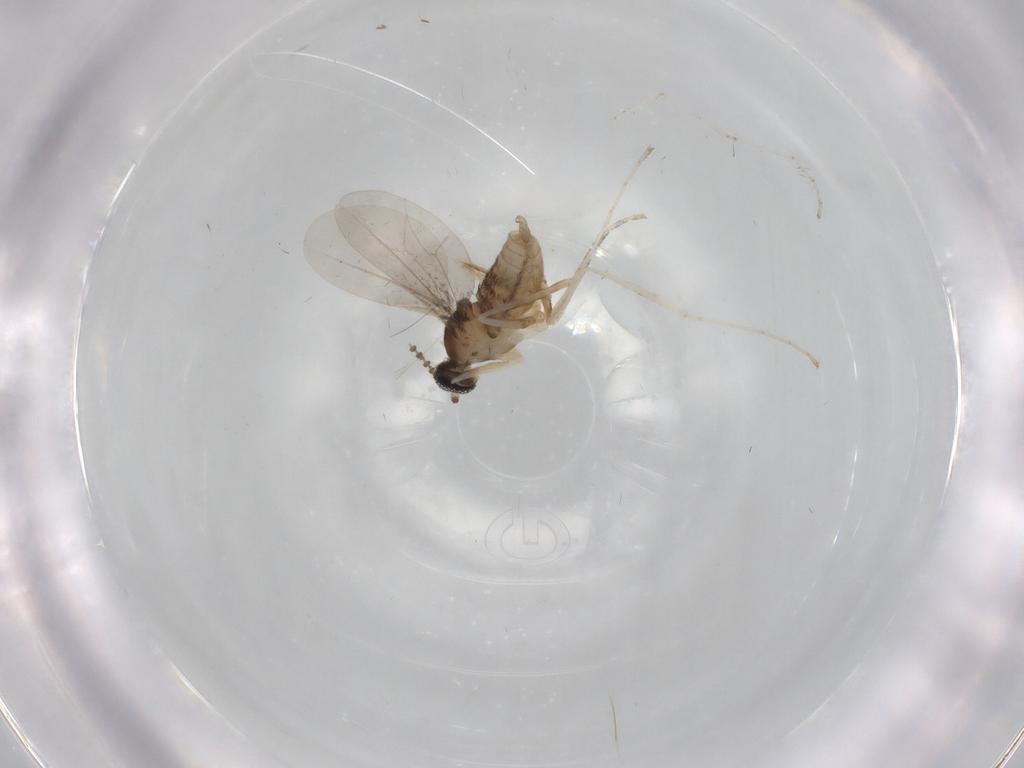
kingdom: Animalia
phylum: Arthropoda
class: Insecta
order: Diptera
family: Cecidomyiidae
